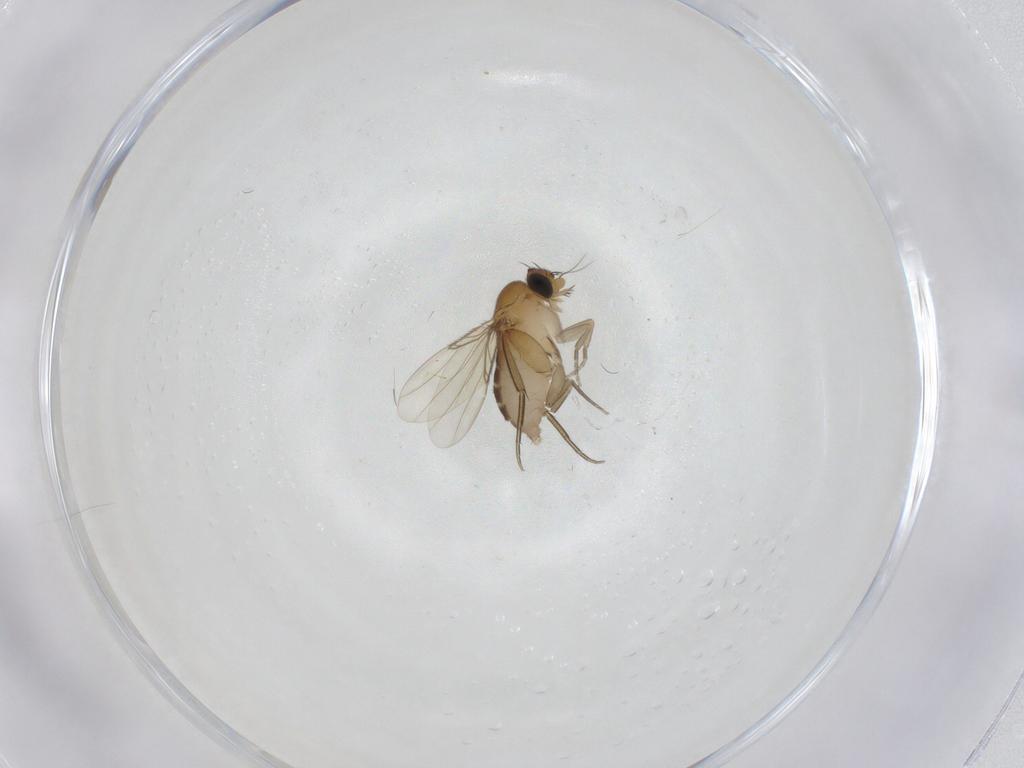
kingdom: Animalia
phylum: Arthropoda
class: Insecta
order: Diptera
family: Phoridae
